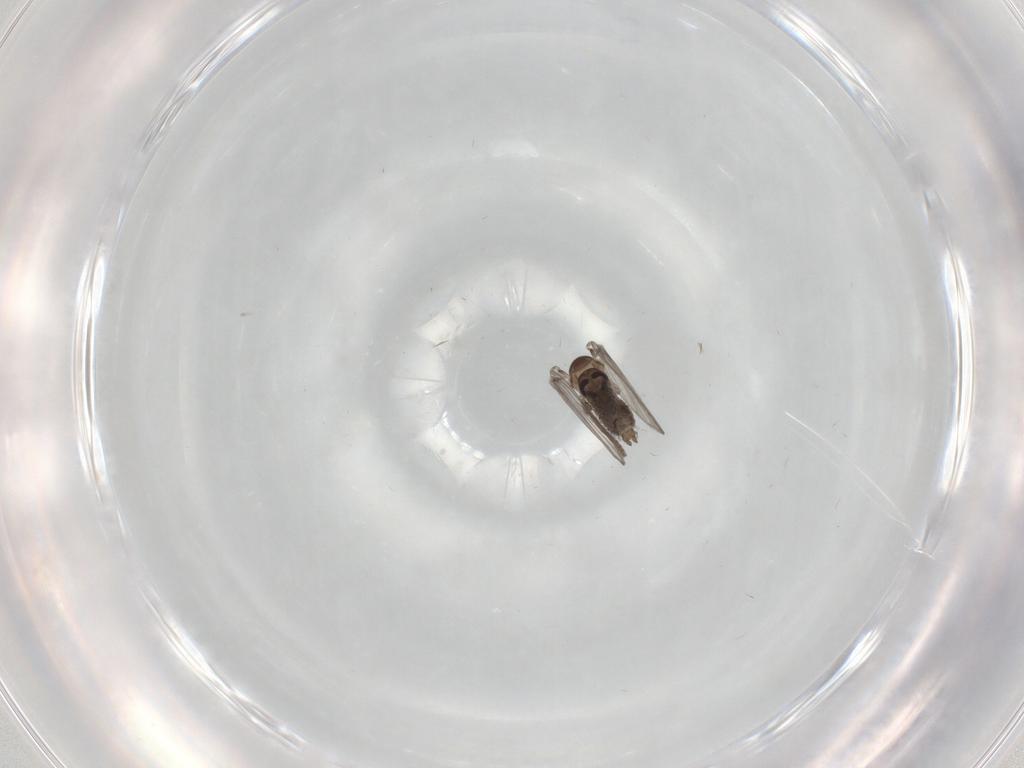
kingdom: Animalia
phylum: Arthropoda
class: Insecta
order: Diptera
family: Psychodidae
